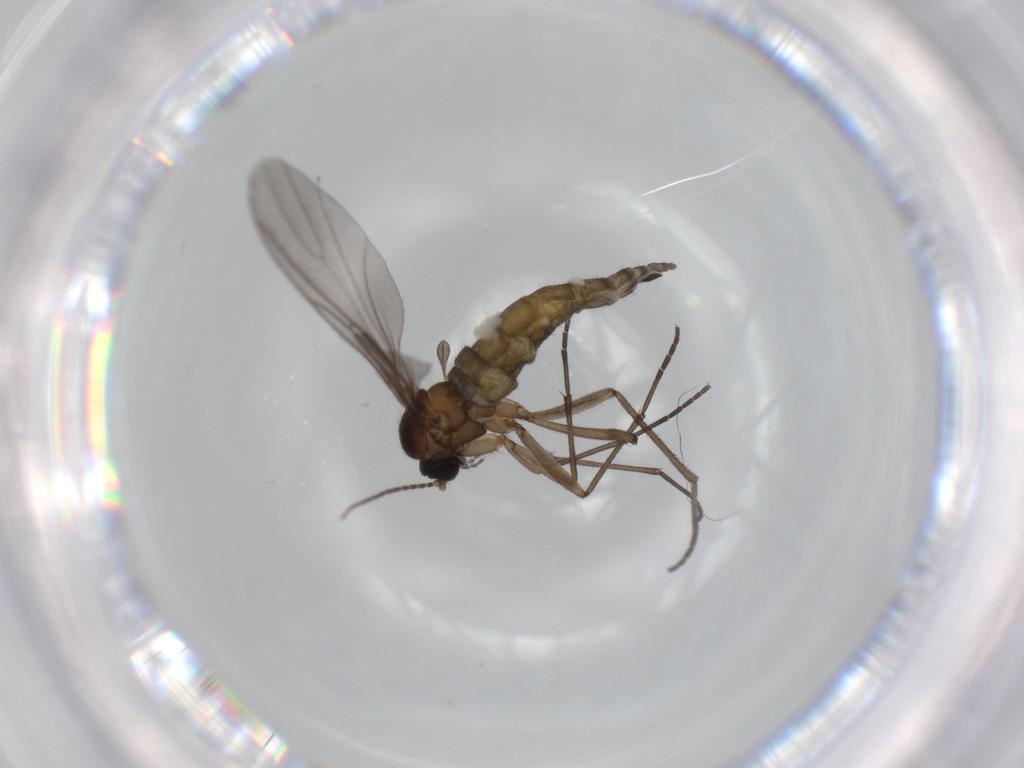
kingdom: Animalia
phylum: Arthropoda
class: Insecta
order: Diptera
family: Sciaridae
